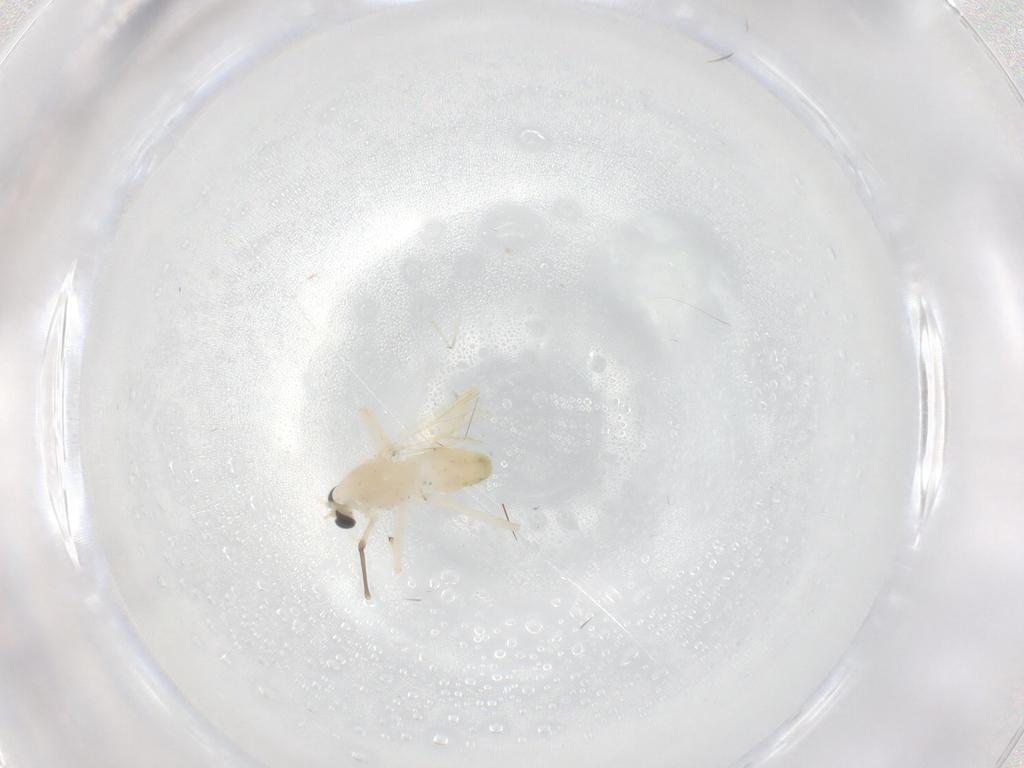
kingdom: Animalia
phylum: Arthropoda
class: Insecta
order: Diptera
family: Chironomidae
